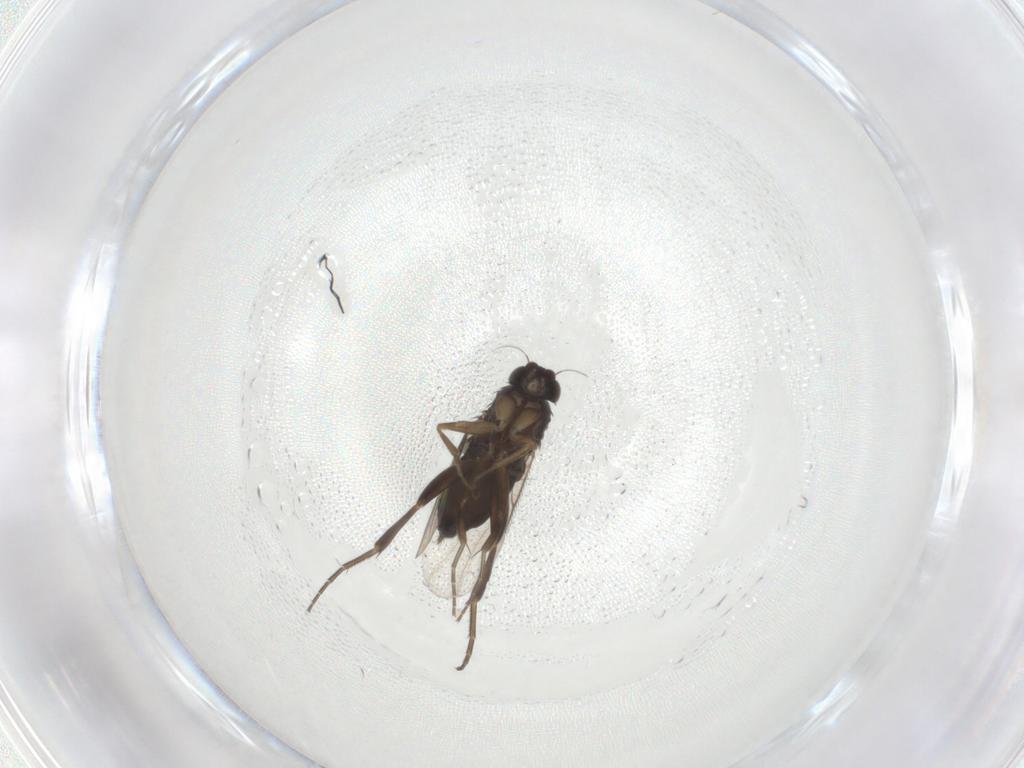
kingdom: Animalia
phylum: Arthropoda
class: Insecta
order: Diptera
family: Phoridae
